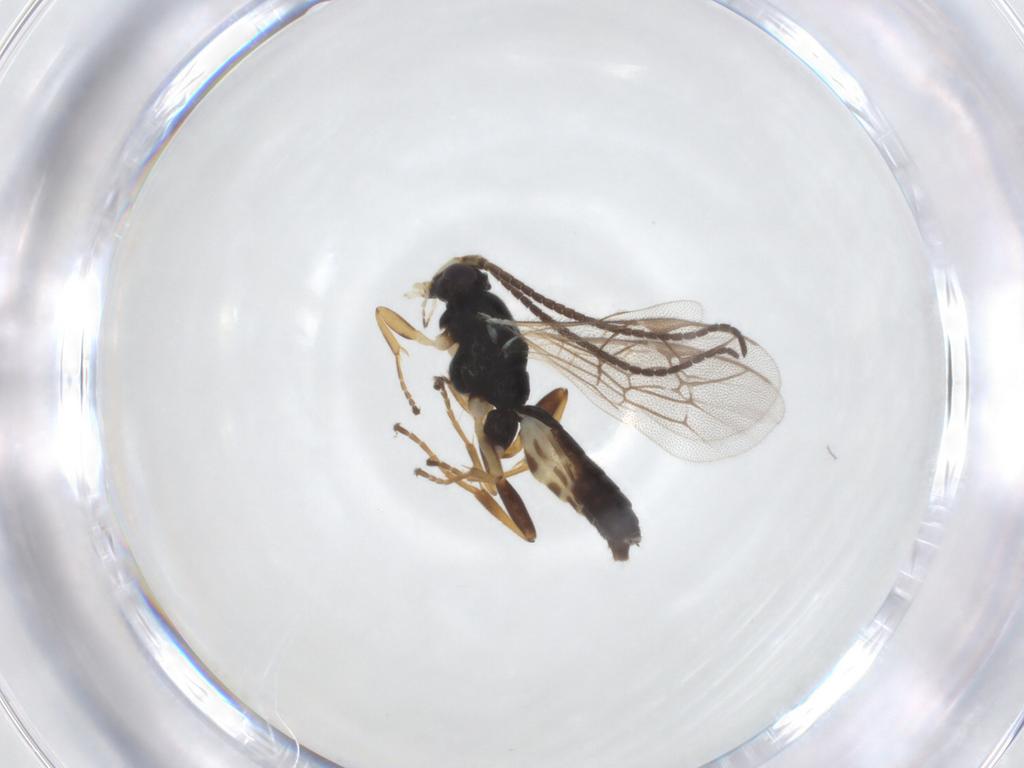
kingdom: Animalia
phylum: Arthropoda
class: Insecta
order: Hymenoptera
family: Ichneumonidae
